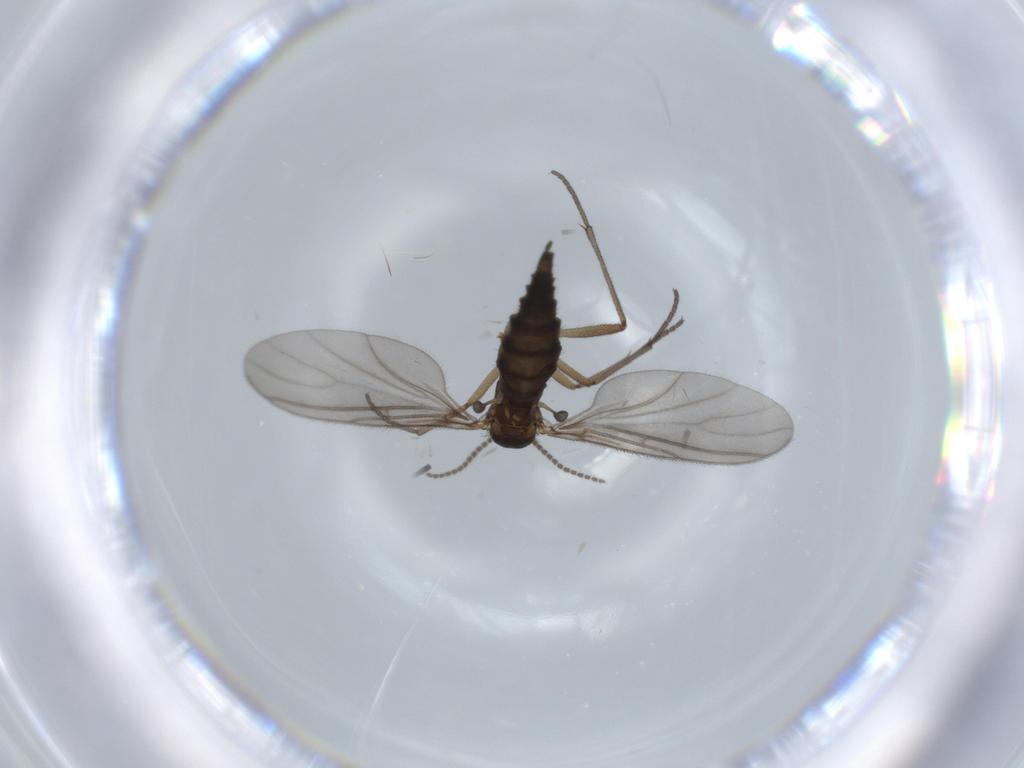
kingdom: Animalia
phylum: Arthropoda
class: Insecta
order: Diptera
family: Sciaridae
